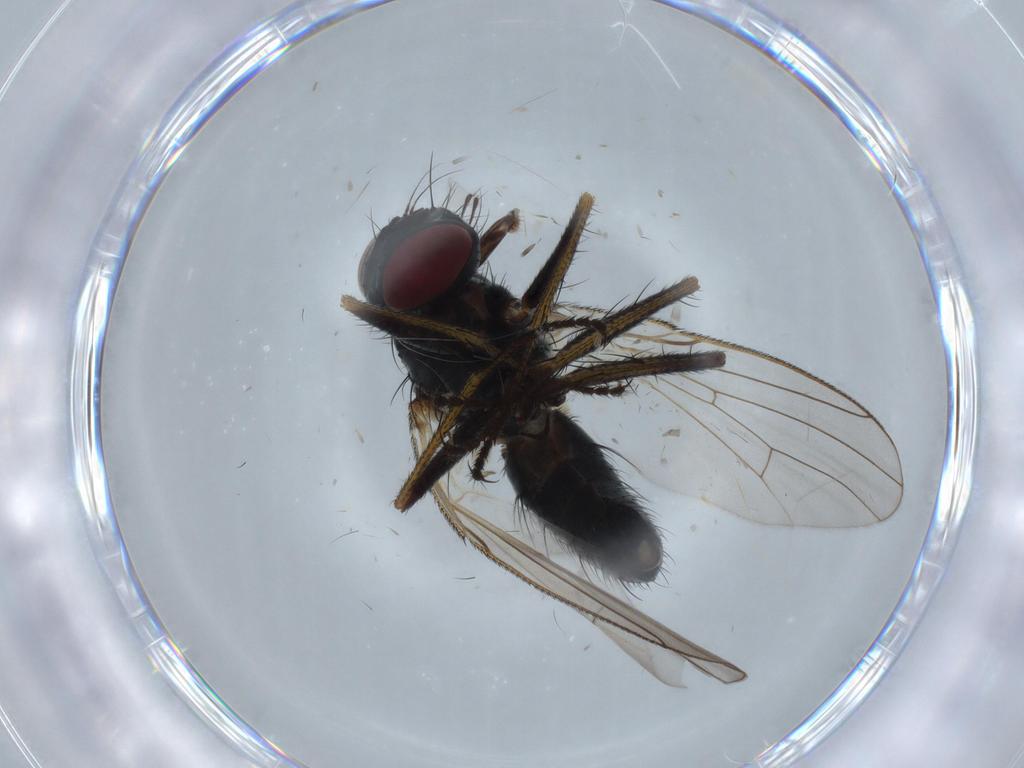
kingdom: Animalia
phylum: Arthropoda
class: Insecta
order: Diptera
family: Muscidae
